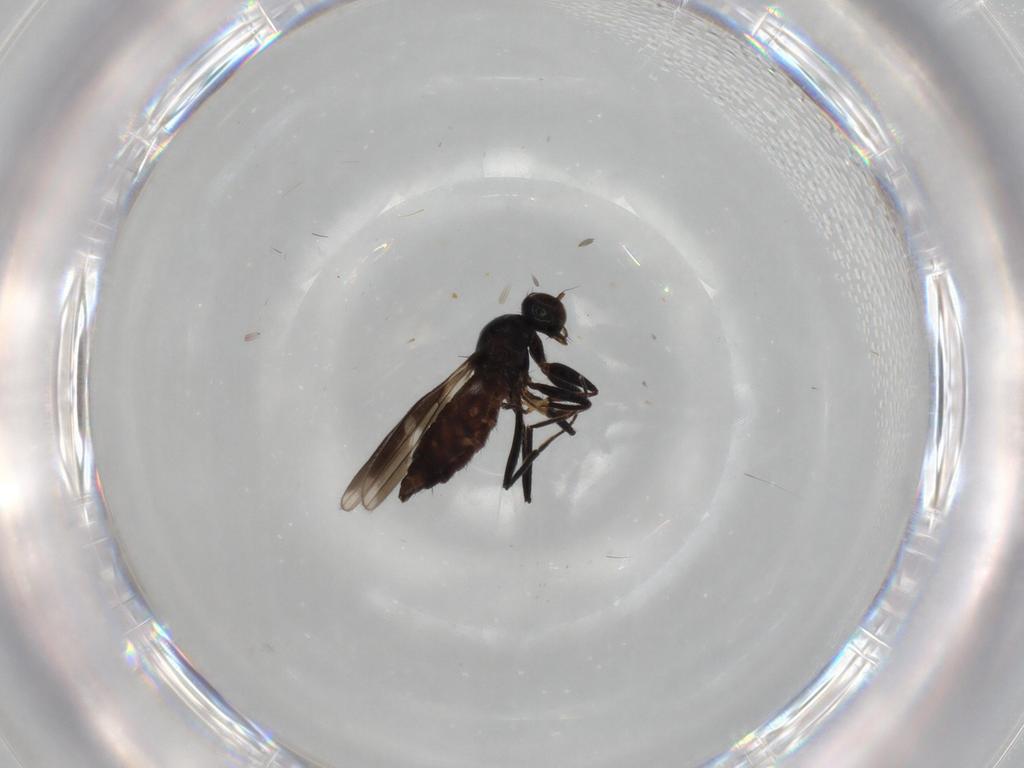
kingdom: Animalia
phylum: Arthropoda
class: Insecta
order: Diptera
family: Hybotidae
